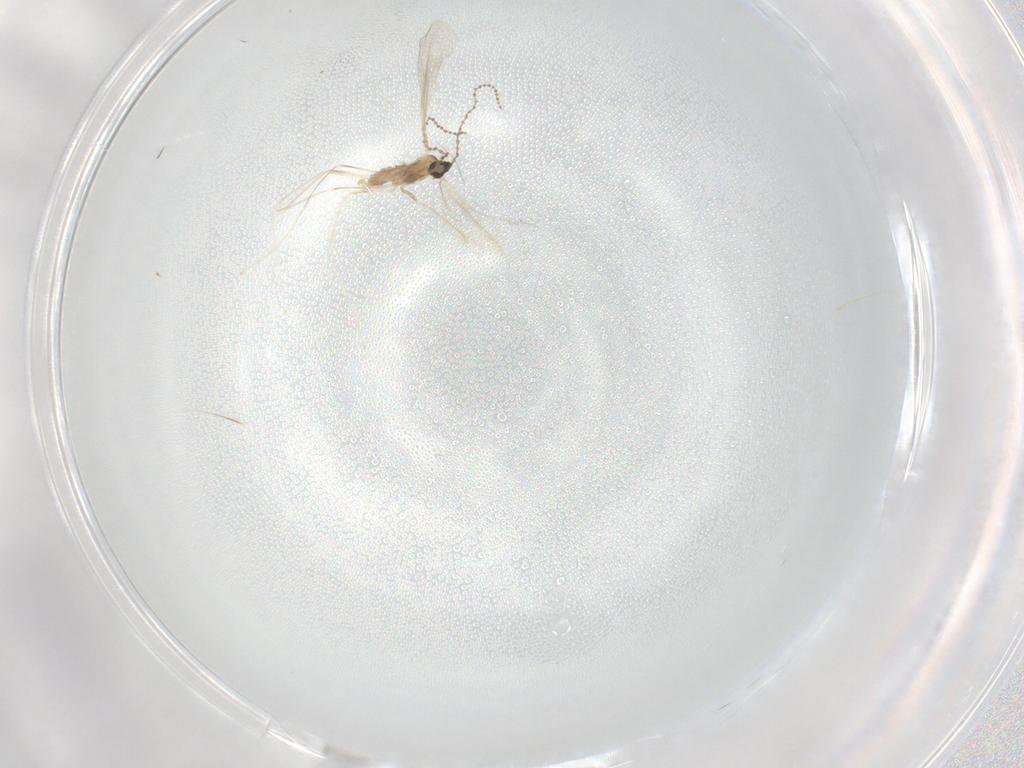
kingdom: Animalia
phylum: Arthropoda
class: Insecta
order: Diptera
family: Cecidomyiidae
